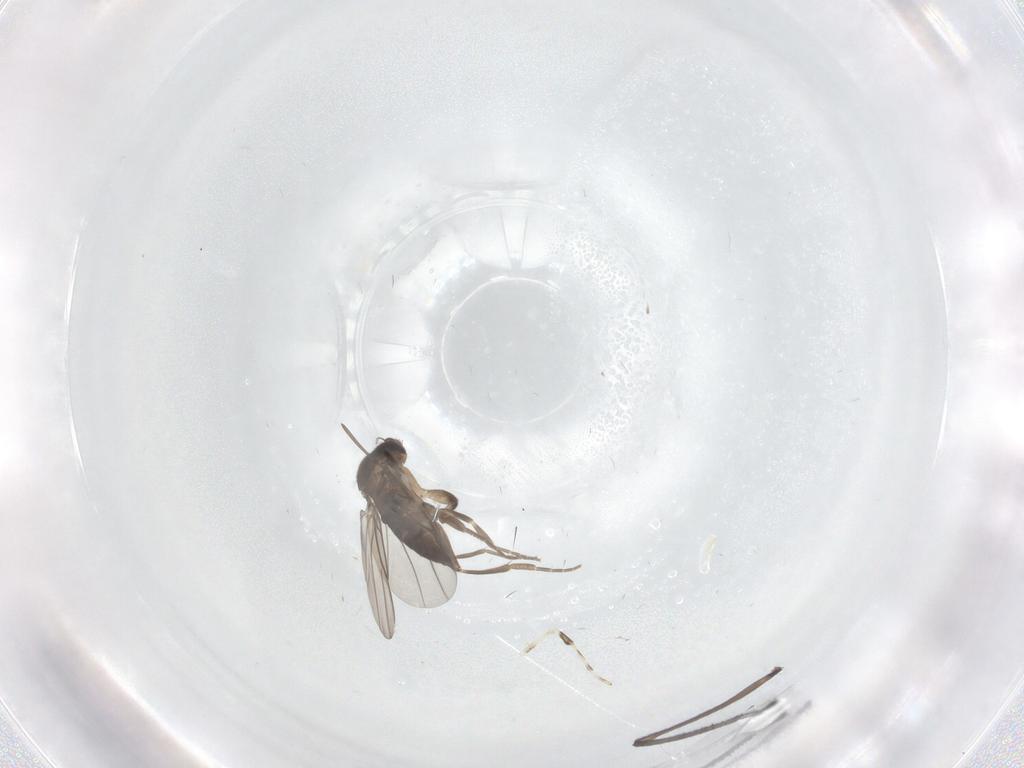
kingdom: Animalia
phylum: Arthropoda
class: Insecta
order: Diptera
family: Sciaridae
